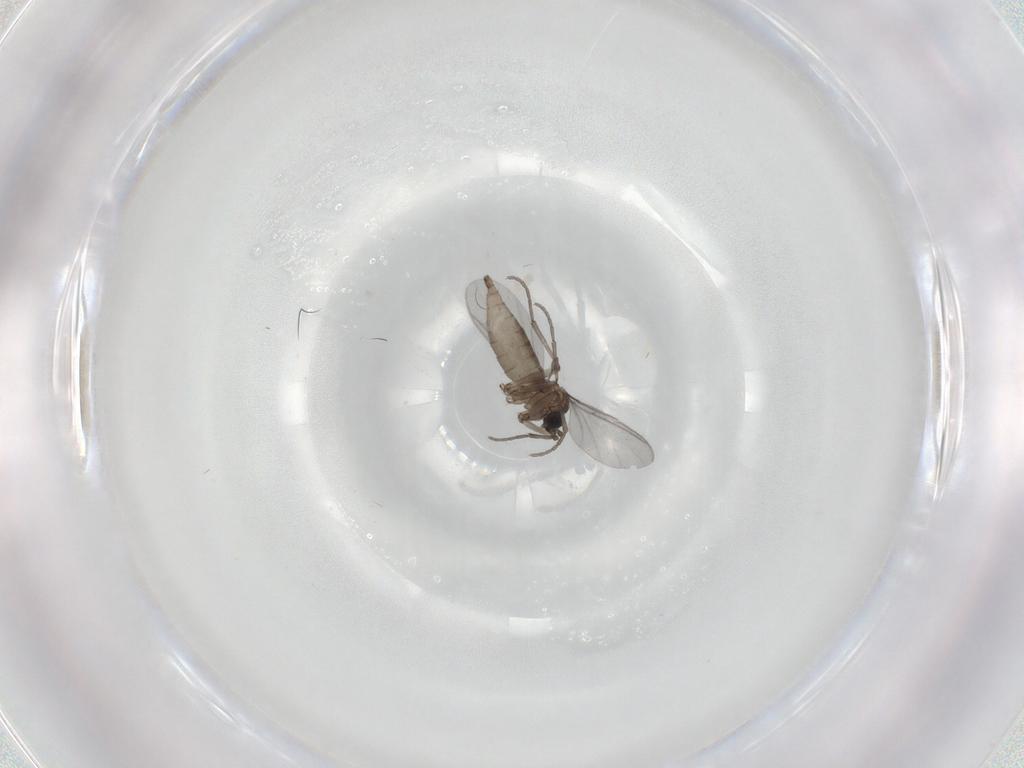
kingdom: Animalia
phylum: Arthropoda
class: Insecta
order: Diptera
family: Sciaridae
